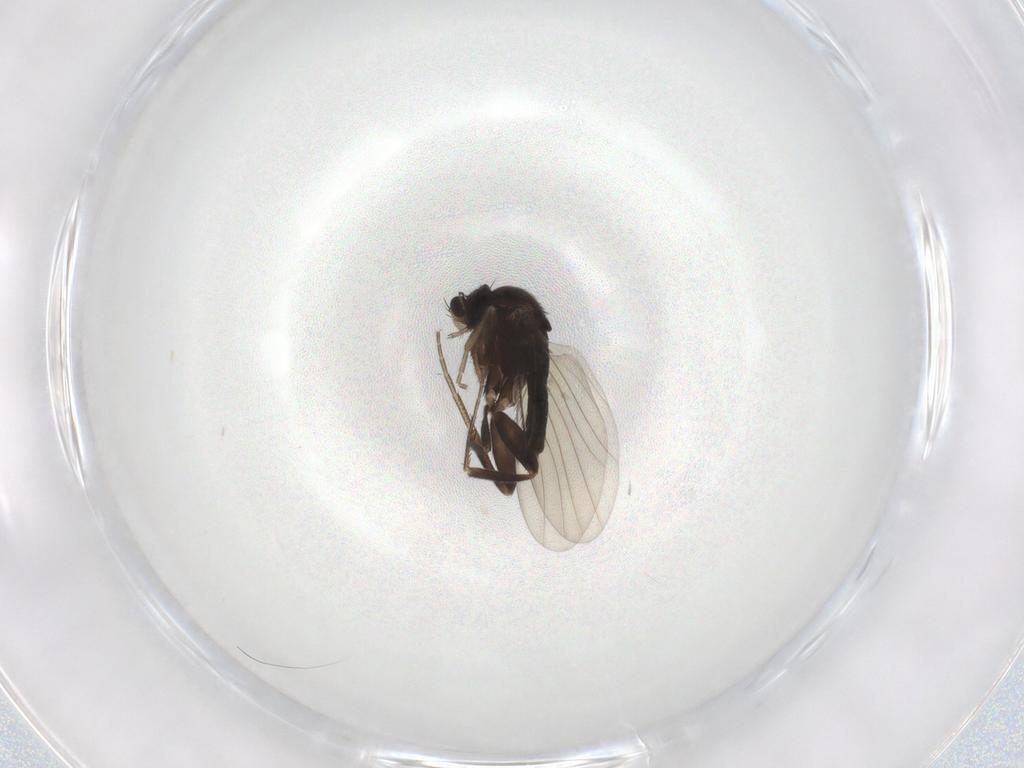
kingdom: Animalia
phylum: Arthropoda
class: Insecta
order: Diptera
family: Phoridae
